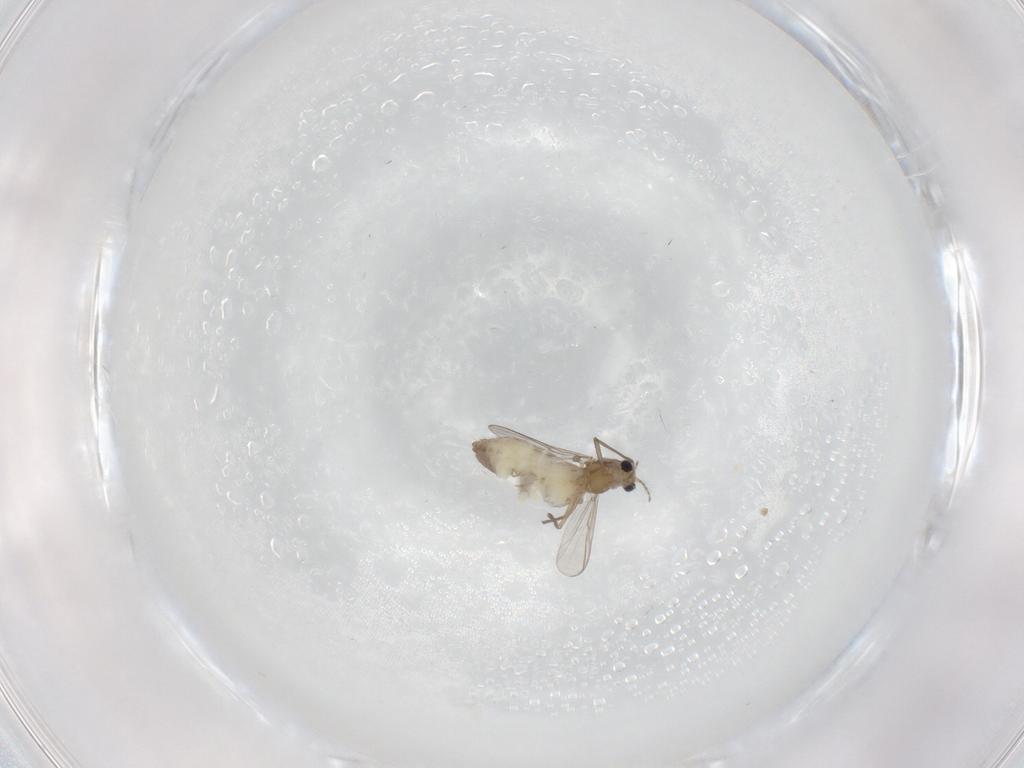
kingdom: Animalia
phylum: Arthropoda
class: Insecta
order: Diptera
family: Chironomidae
